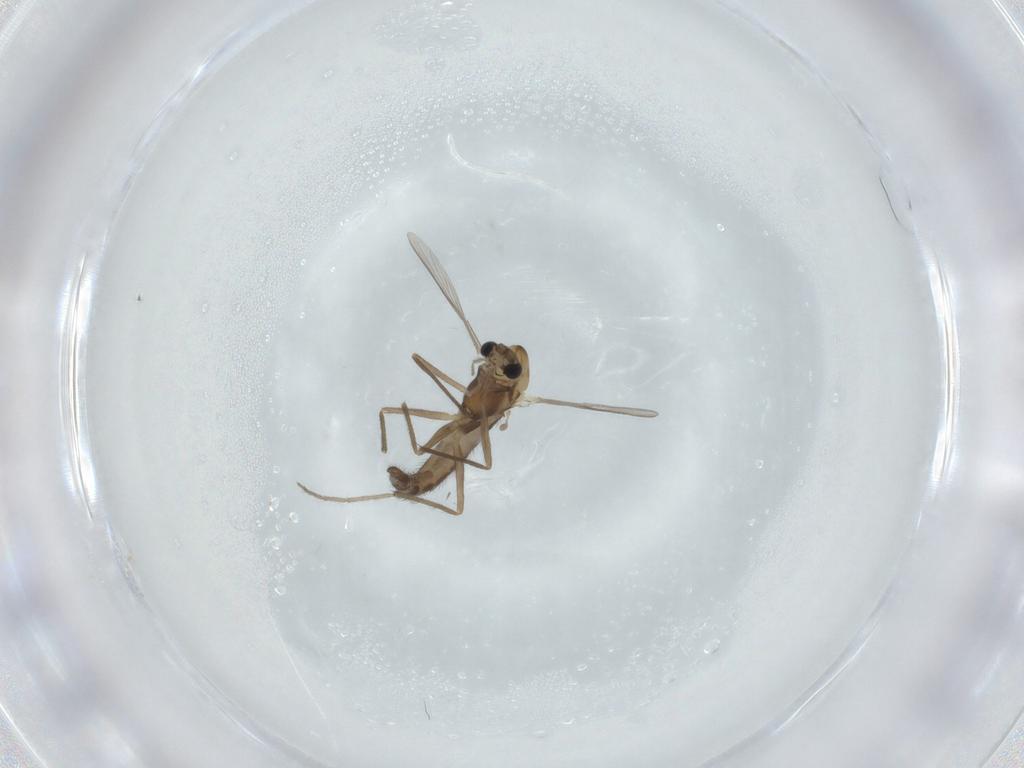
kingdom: Animalia
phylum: Arthropoda
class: Insecta
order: Diptera
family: Chironomidae
